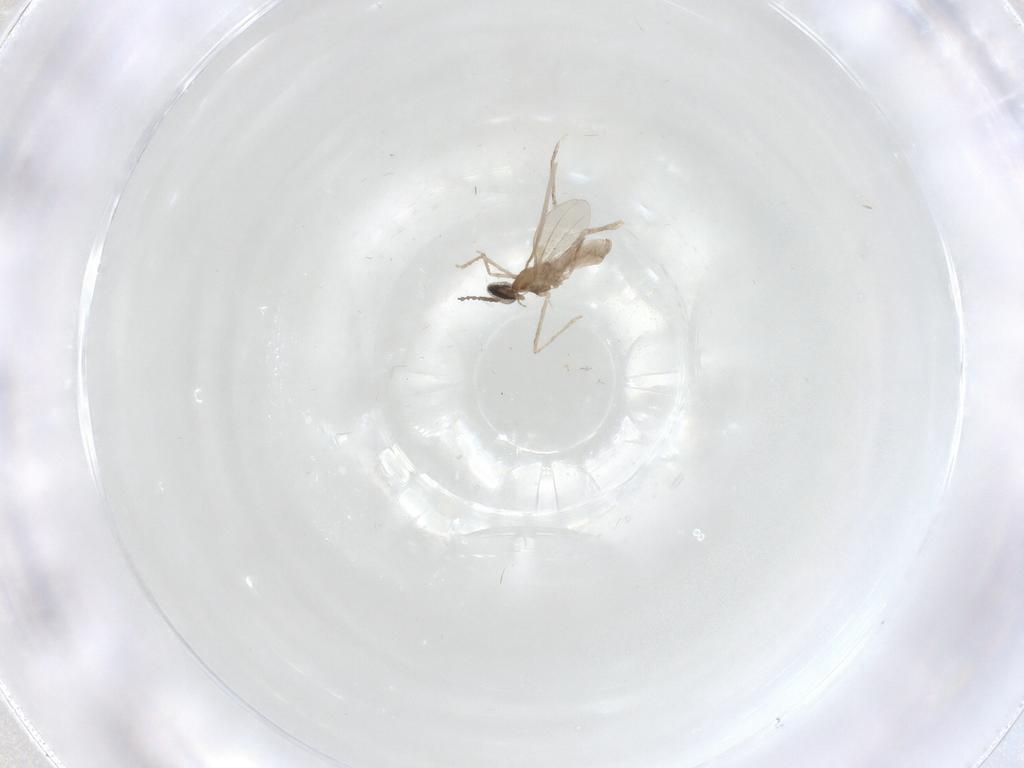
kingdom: Animalia
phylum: Arthropoda
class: Insecta
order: Diptera
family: Cecidomyiidae
